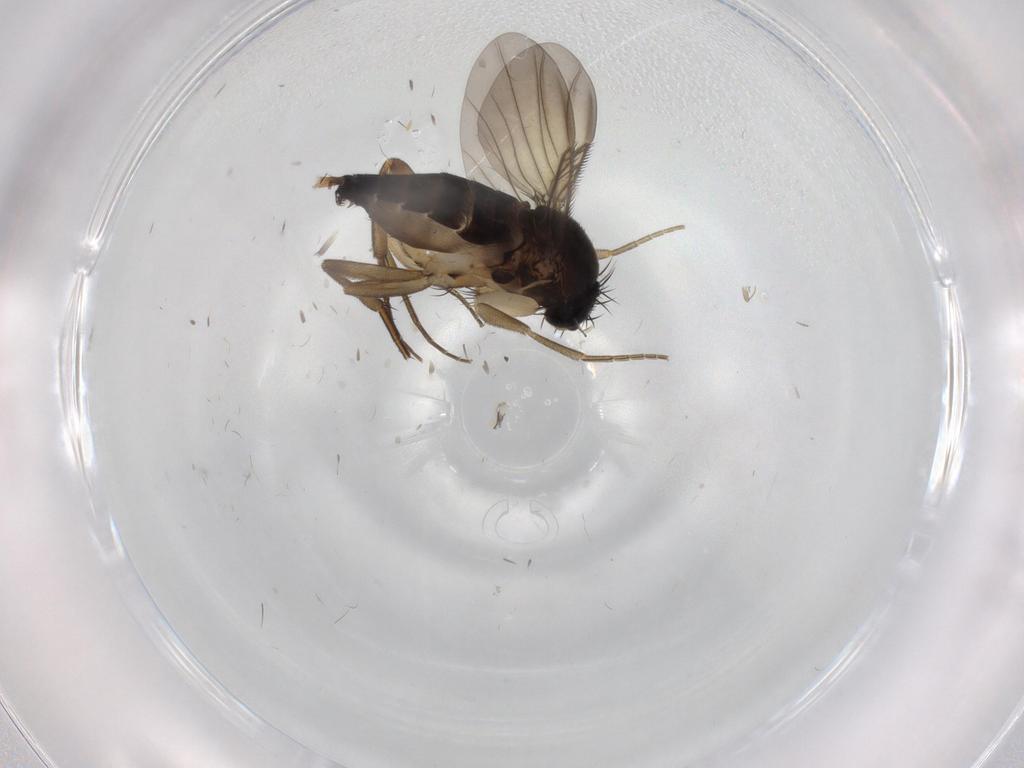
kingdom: Animalia
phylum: Arthropoda
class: Insecta
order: Diptera
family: Phoridae
